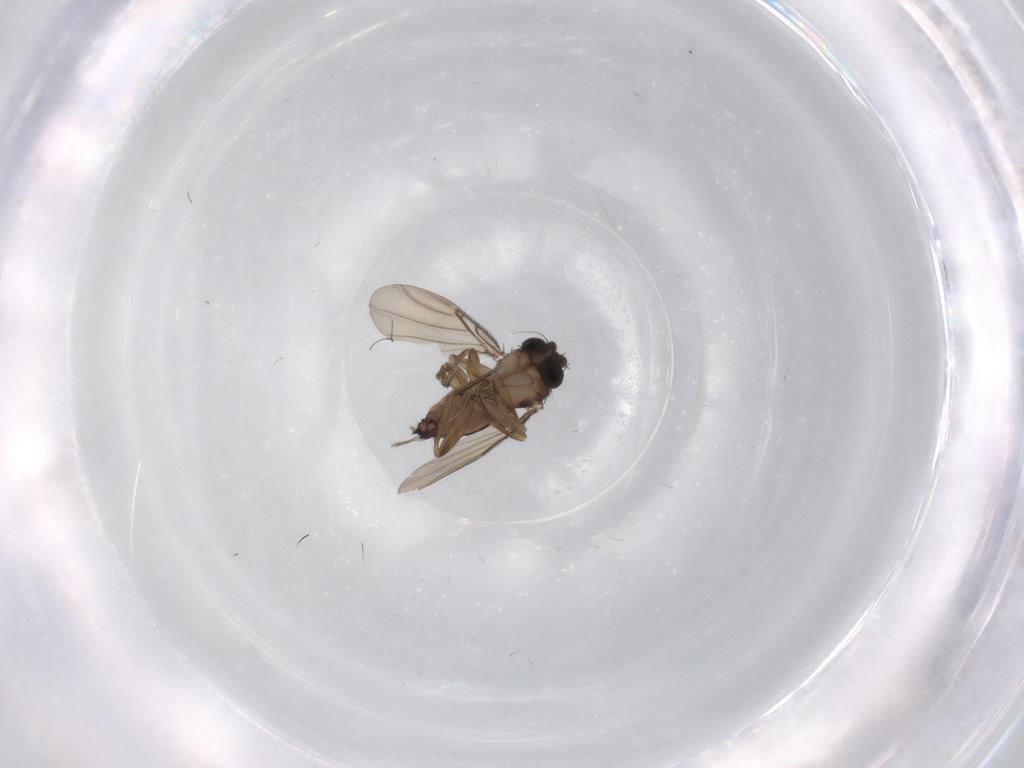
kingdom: Animalia
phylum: Arthropoda
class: Insecta
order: Diptera
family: Phoridae
